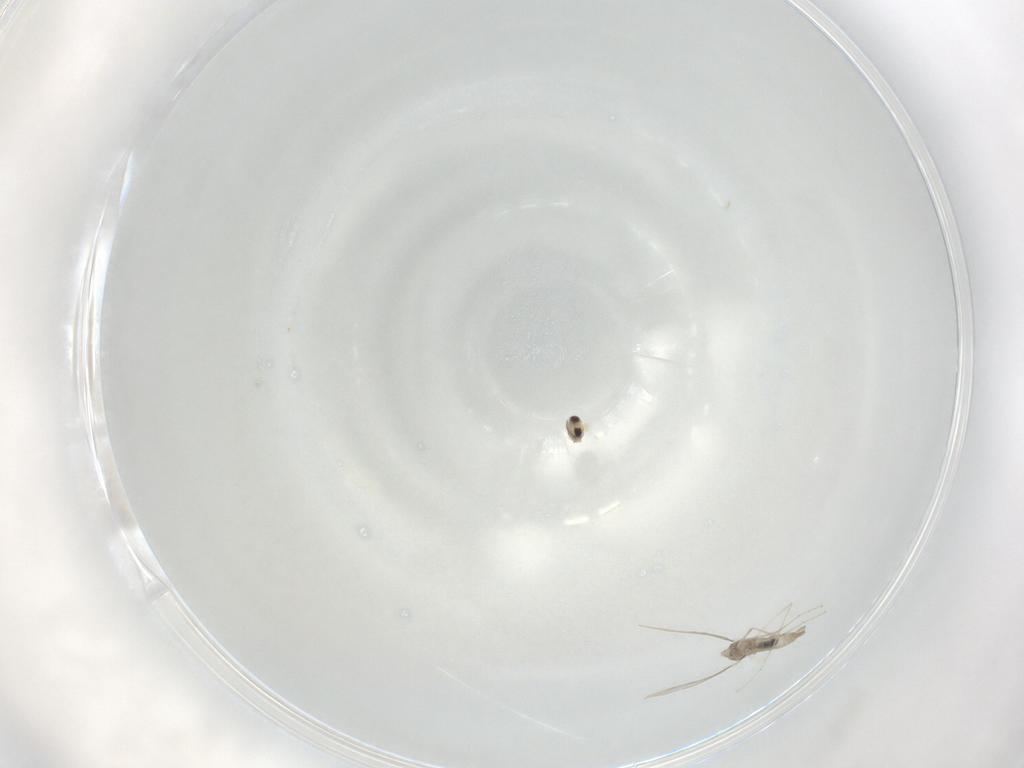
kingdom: Animalia
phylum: Arthropoda
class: Insecta
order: Diptera
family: Cecidomyiidae
